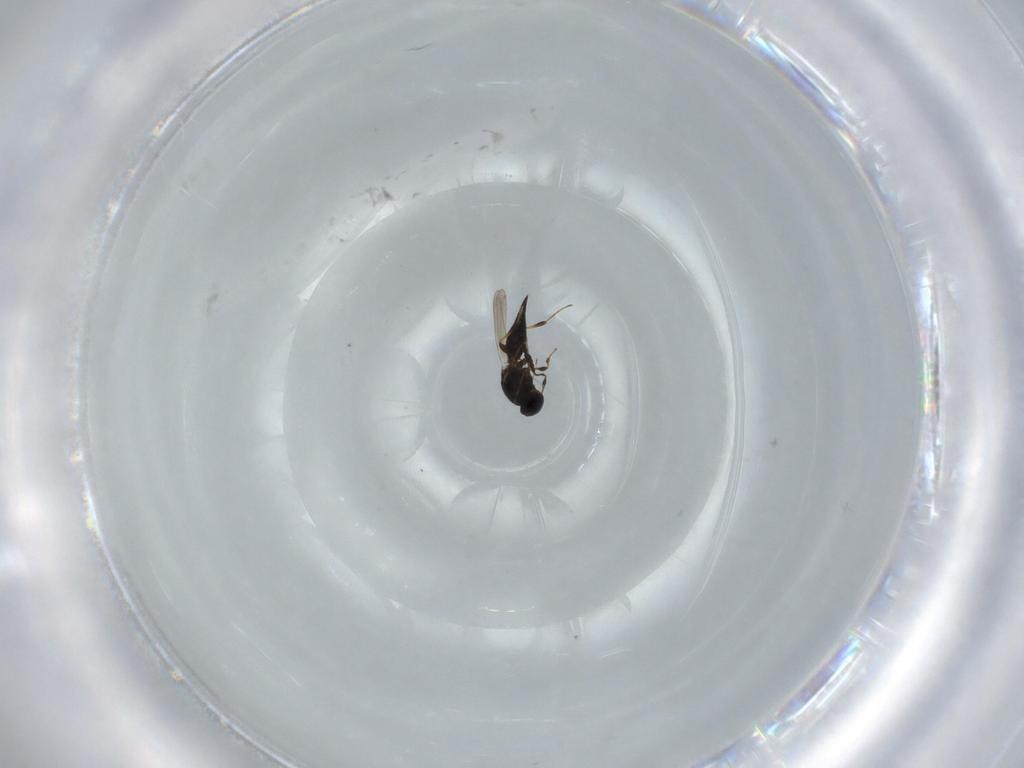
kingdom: Animalia
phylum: Arthropoda
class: Insecta
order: Hymenoptera
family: Platygastridae
